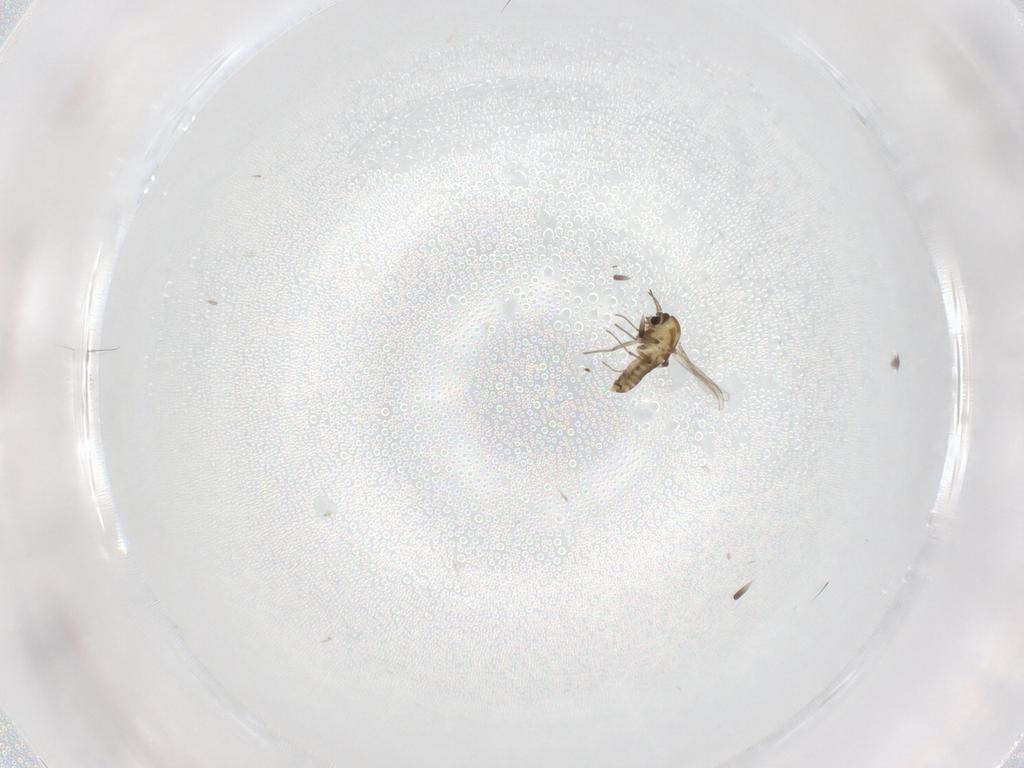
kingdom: Animalia
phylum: Arthropoda
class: Insecta
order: Diptera
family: Chironomidae
